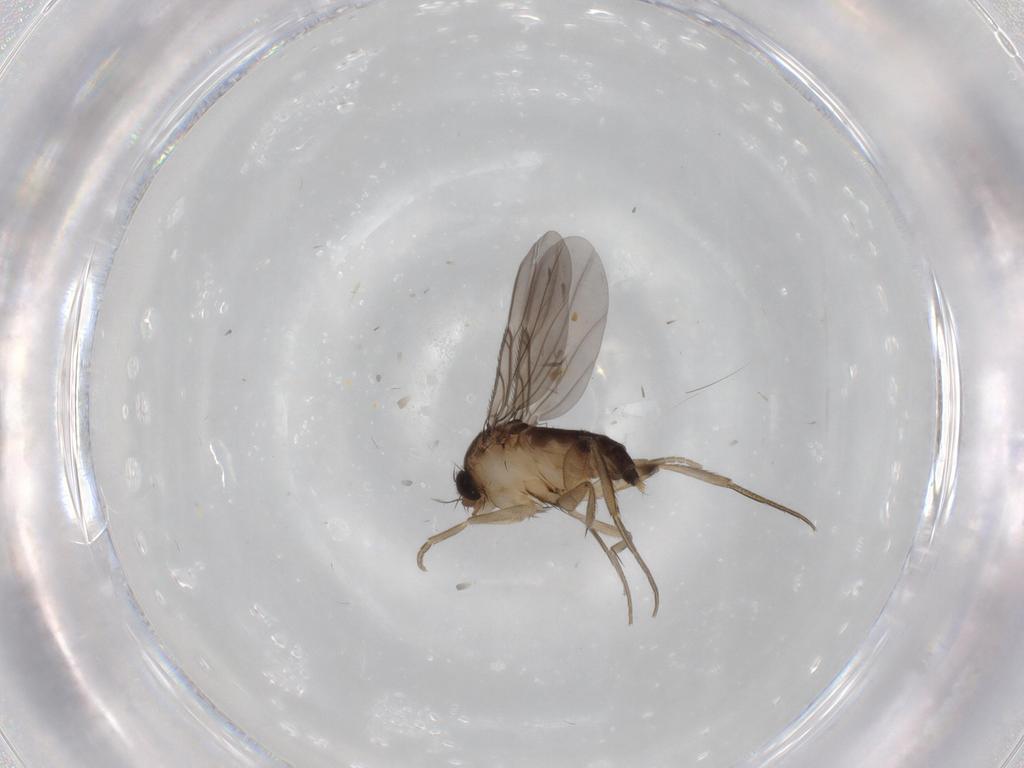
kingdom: Animalia
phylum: Arthropoda
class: Insecta
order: Diptera
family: Phoridae
